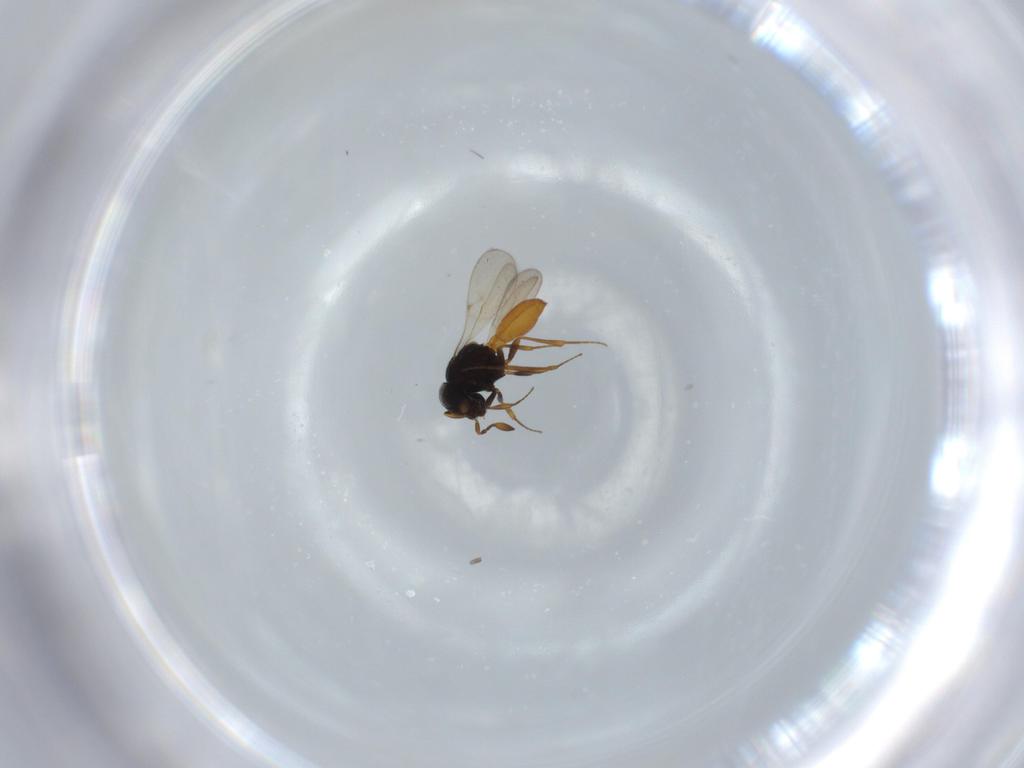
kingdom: Animalia
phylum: Arthropoda
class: Insecta
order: Hymenoptera
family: Scelionidae
